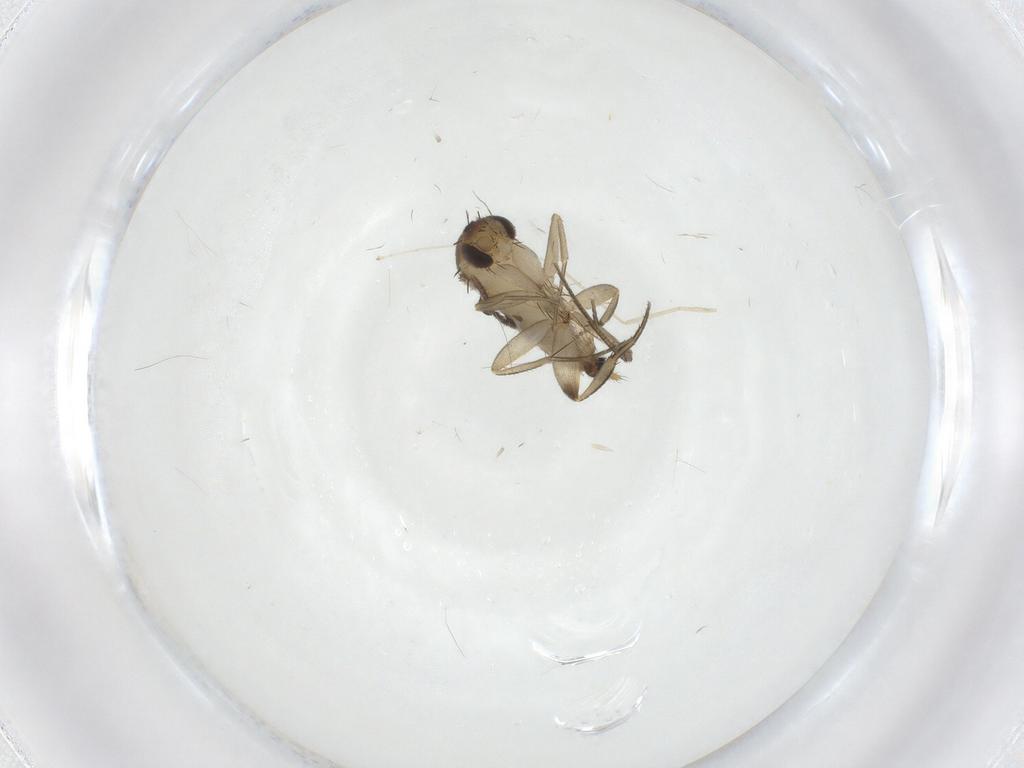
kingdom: Animalia
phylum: Arthropoda
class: Insecta
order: Diptera
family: Phoridae
